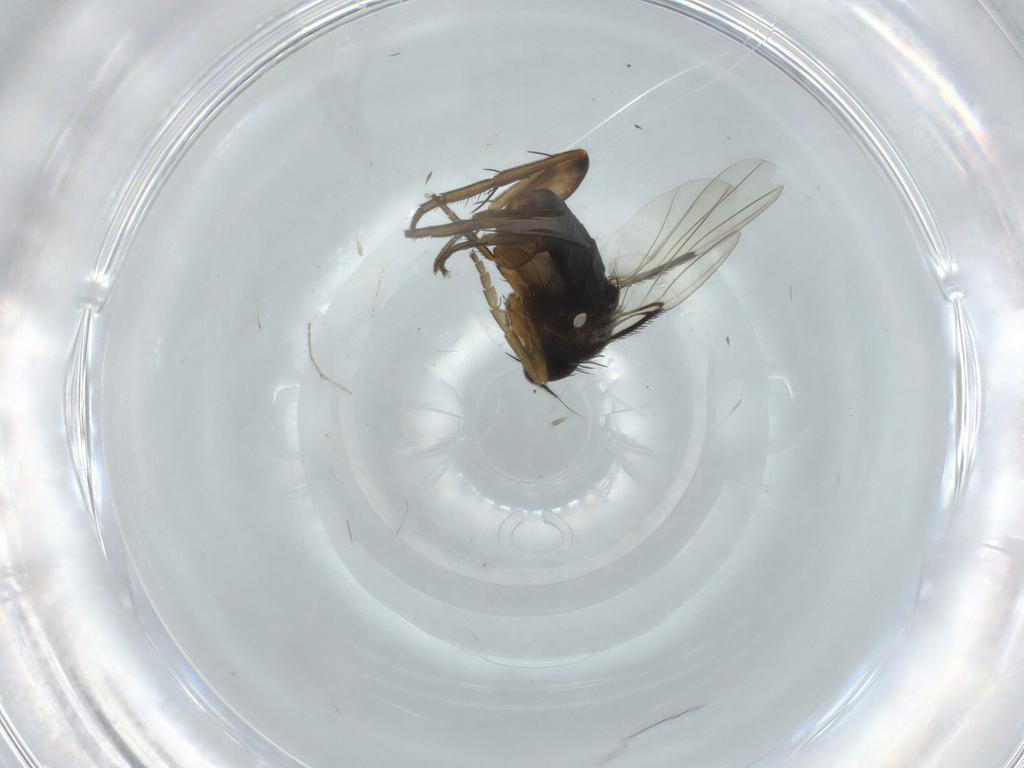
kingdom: Animalia
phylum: Arthropoda
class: Insecta
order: Diptera
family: Phoridae
